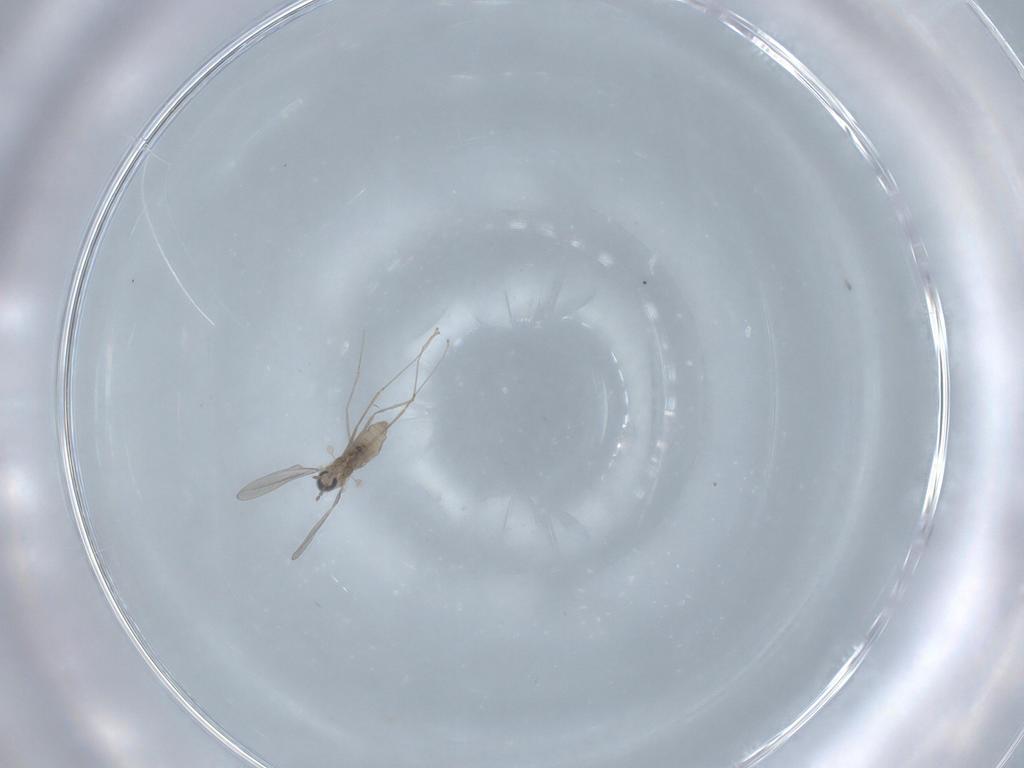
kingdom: Animalia
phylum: Arthropoda
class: Insecta
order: Diptera
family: Cecidomyiidae
